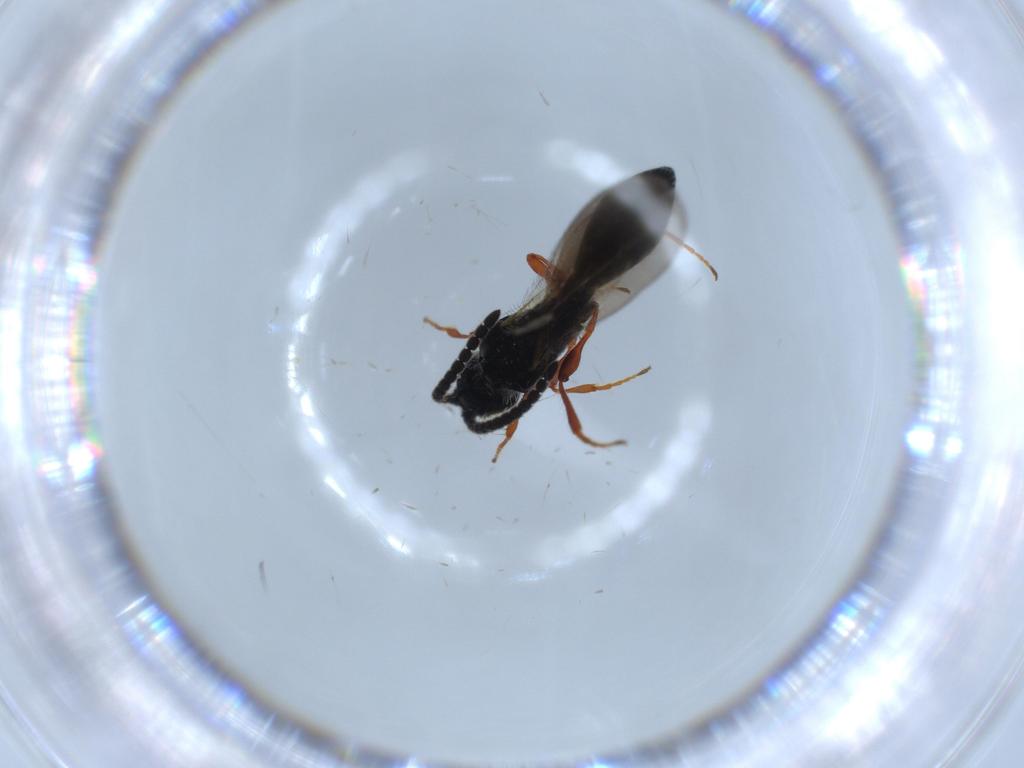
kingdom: Animalia
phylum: Arthropoda
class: Insecta
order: Hymenoptera
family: Diapriidae
